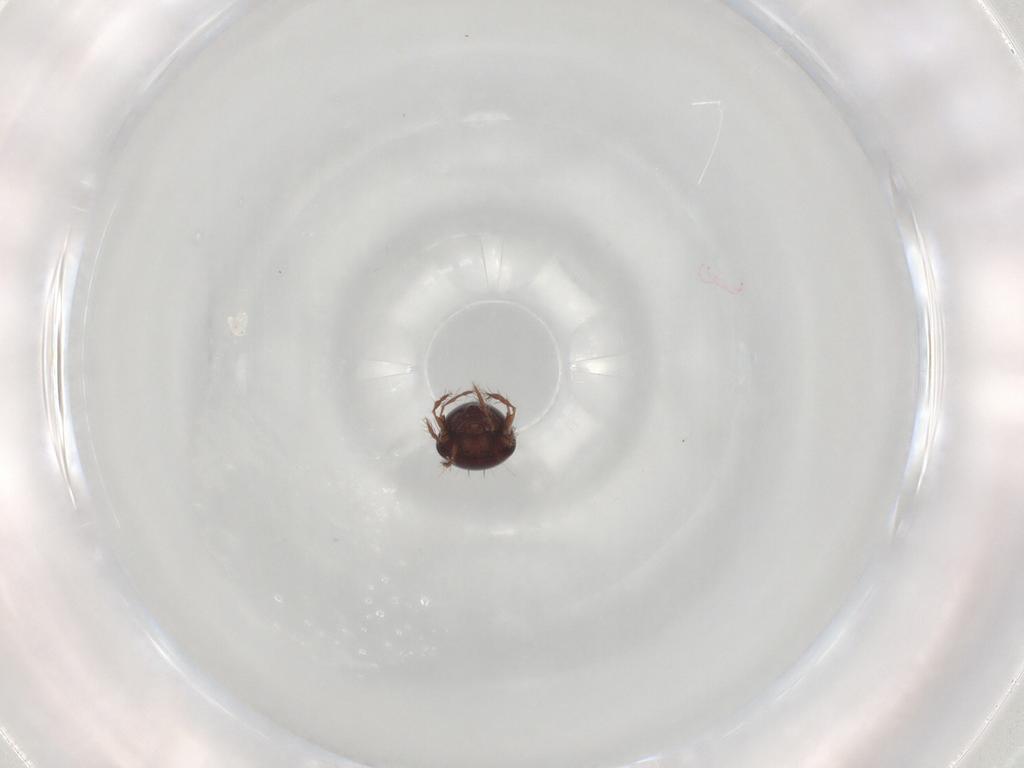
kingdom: Animalia
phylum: Arthropoda
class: Arachnida
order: Sarcoptiformes
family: Ceratoppiidae
